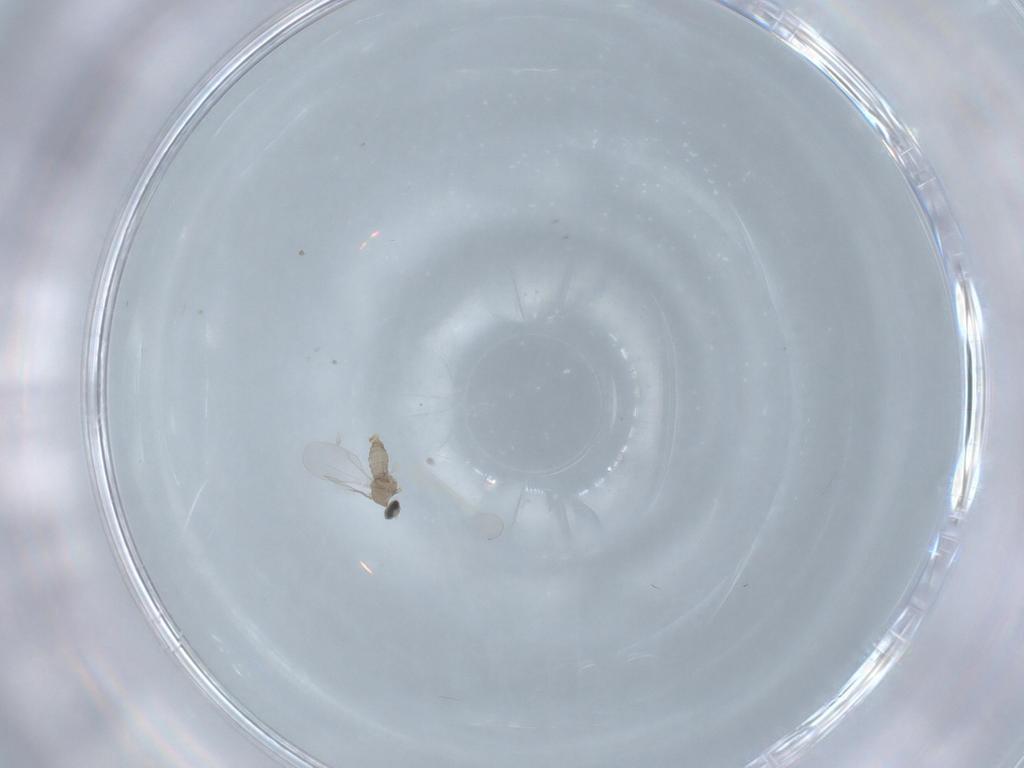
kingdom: Animalia
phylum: Arthropoda
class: Insecta
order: Diptera
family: Cecidomyiidae
